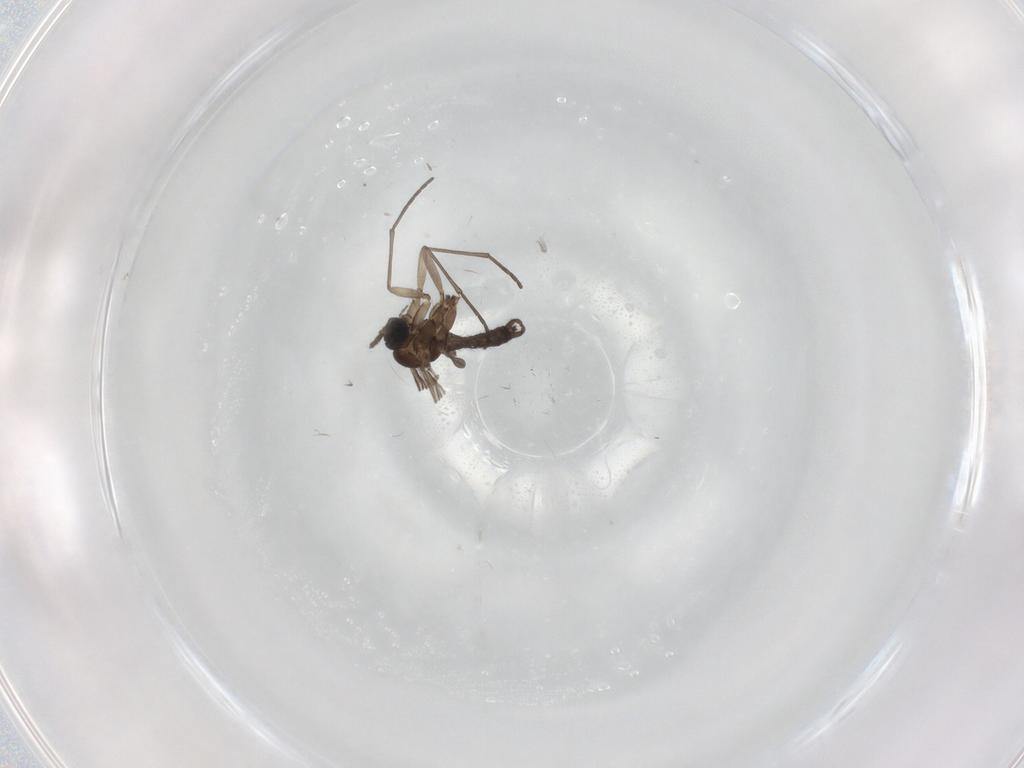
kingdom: Animalia
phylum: Arthropoda
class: Insecta
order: Diptera
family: Sciaridae
